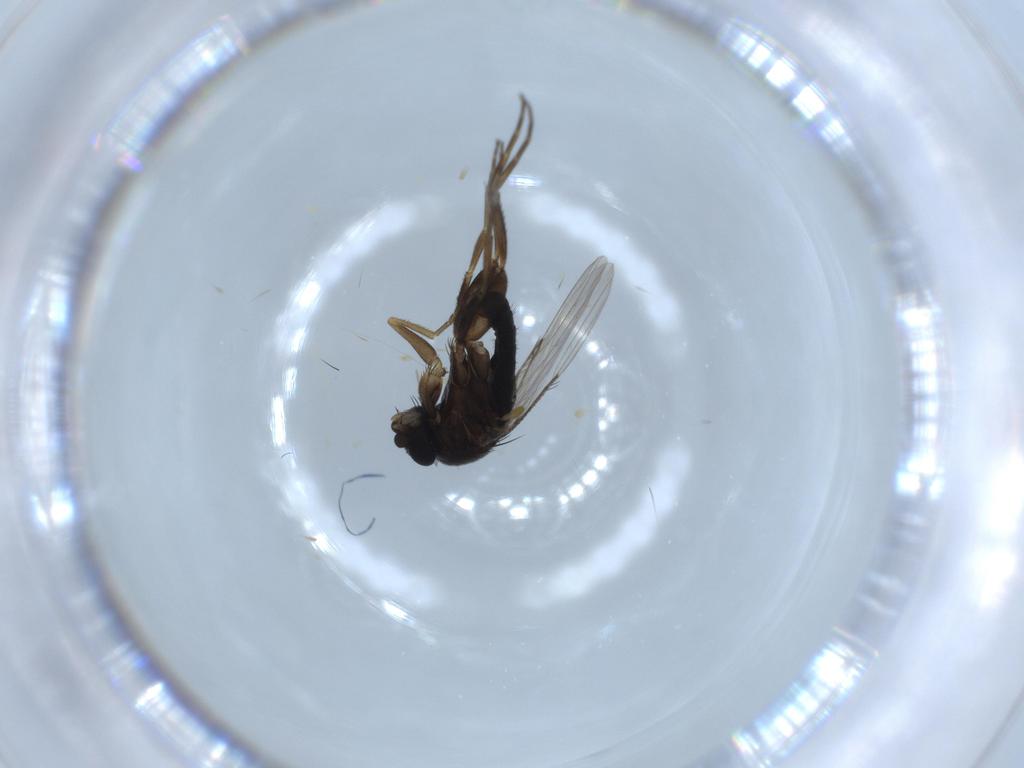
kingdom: Animalia
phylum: Arthropoda
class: Insecta
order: Diptera
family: Phoridae
